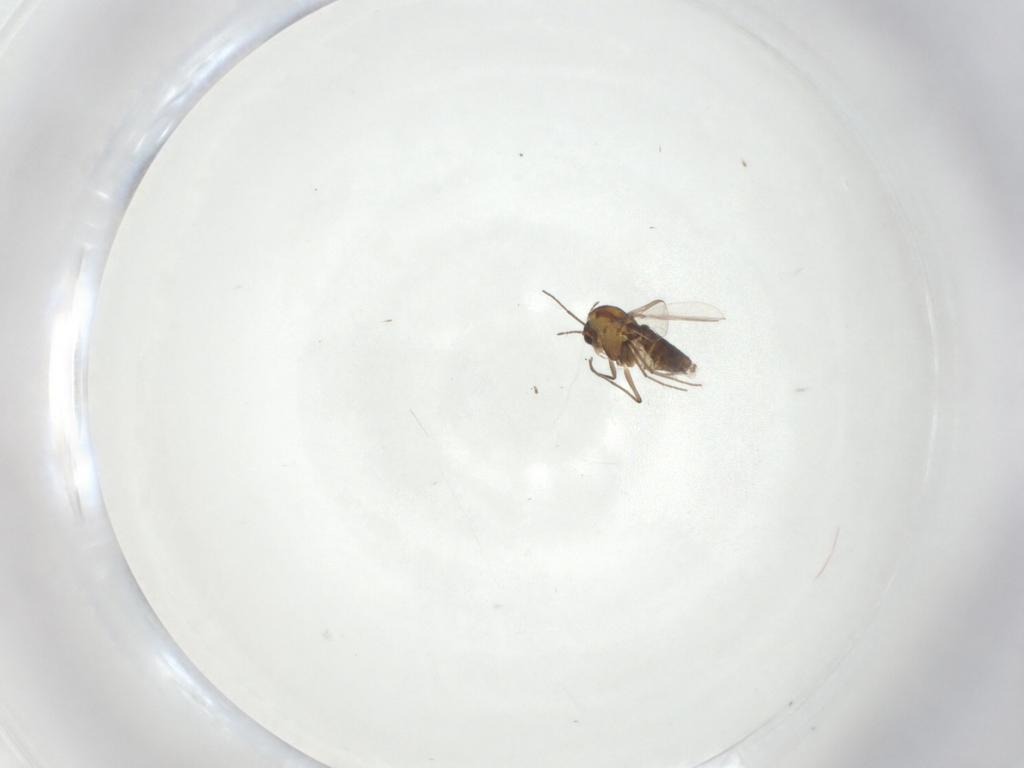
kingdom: Animalia
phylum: Arthropoda
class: Insecta
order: Diptera
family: Chironomidae
